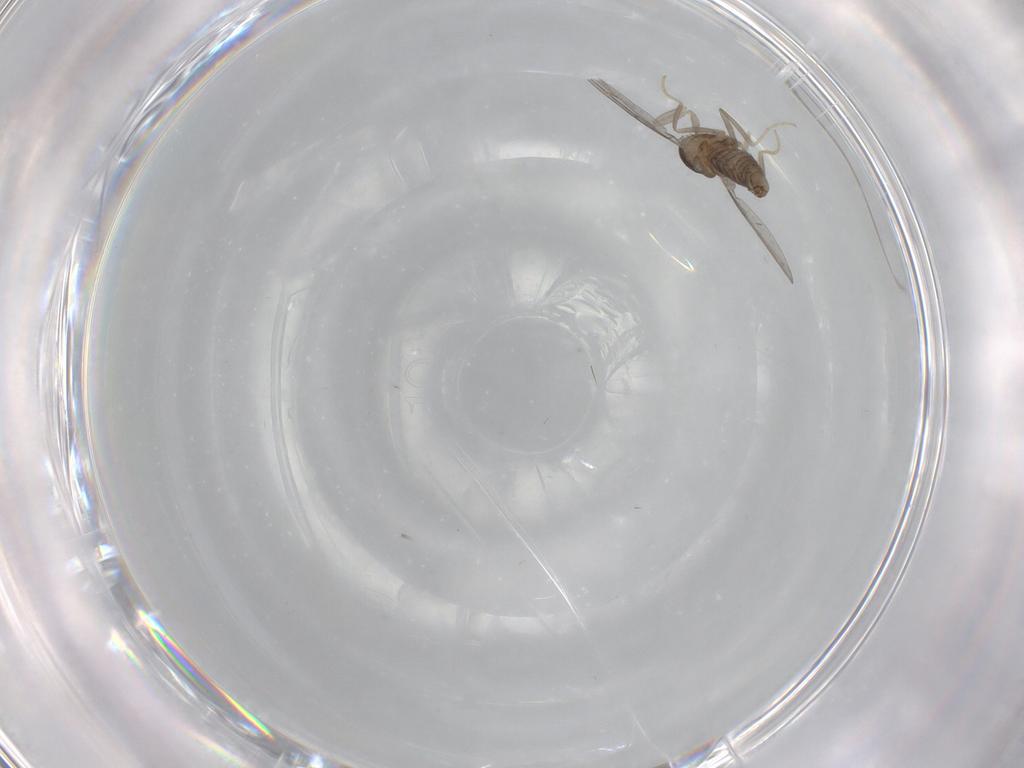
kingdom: Animalia
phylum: Arthropoda
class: Insecta
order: Diptera
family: Cecidomyiidae
